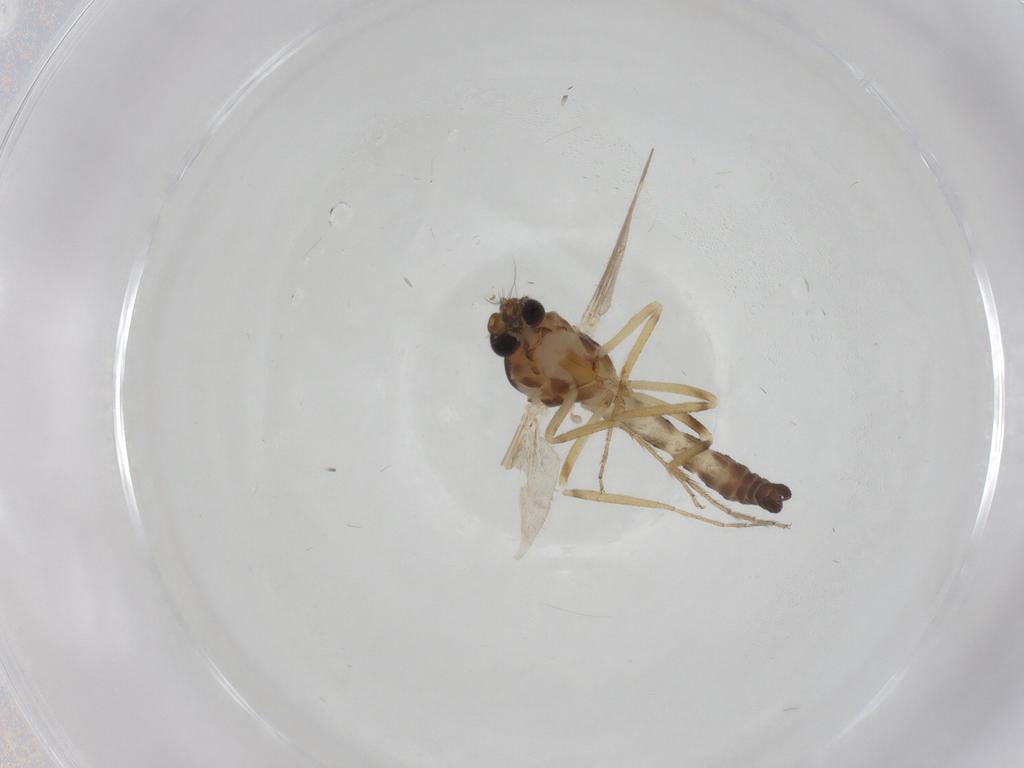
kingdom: Animalia
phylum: Arthropoda
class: Insecta
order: Diptera
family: Ceratopogonidae
